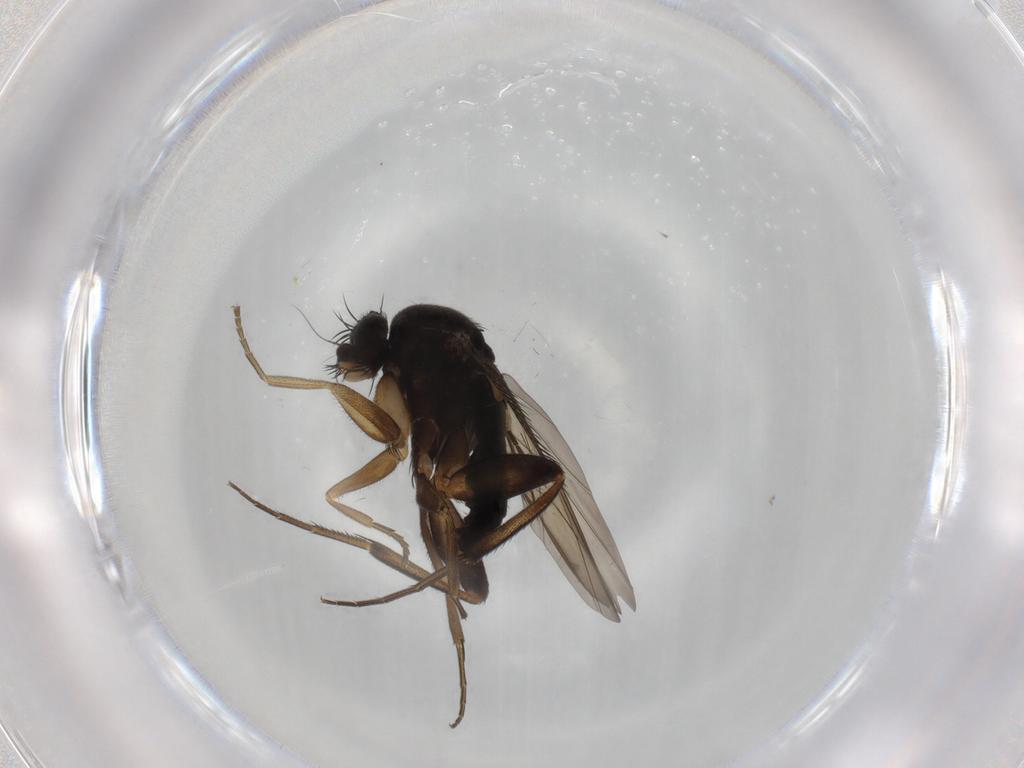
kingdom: Animalia
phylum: Arthropoda
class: Insecta
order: Diptera
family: Phoridae
